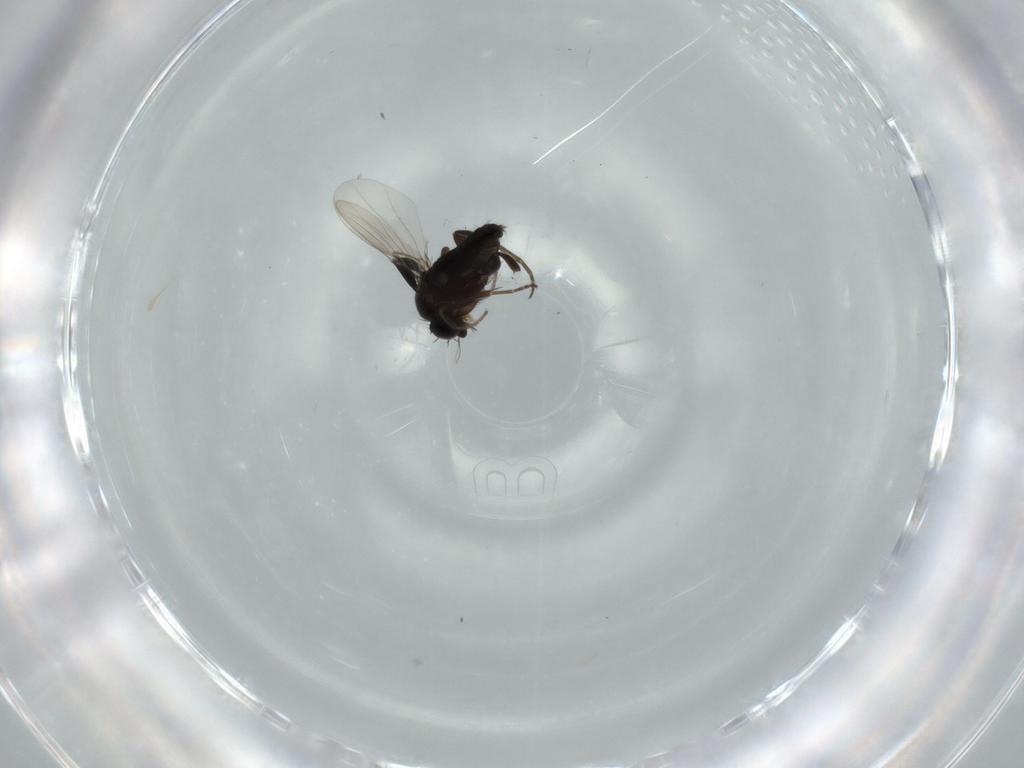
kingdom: Animalia
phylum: Arthropoda
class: Insecta
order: Diptera
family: Phoridae
